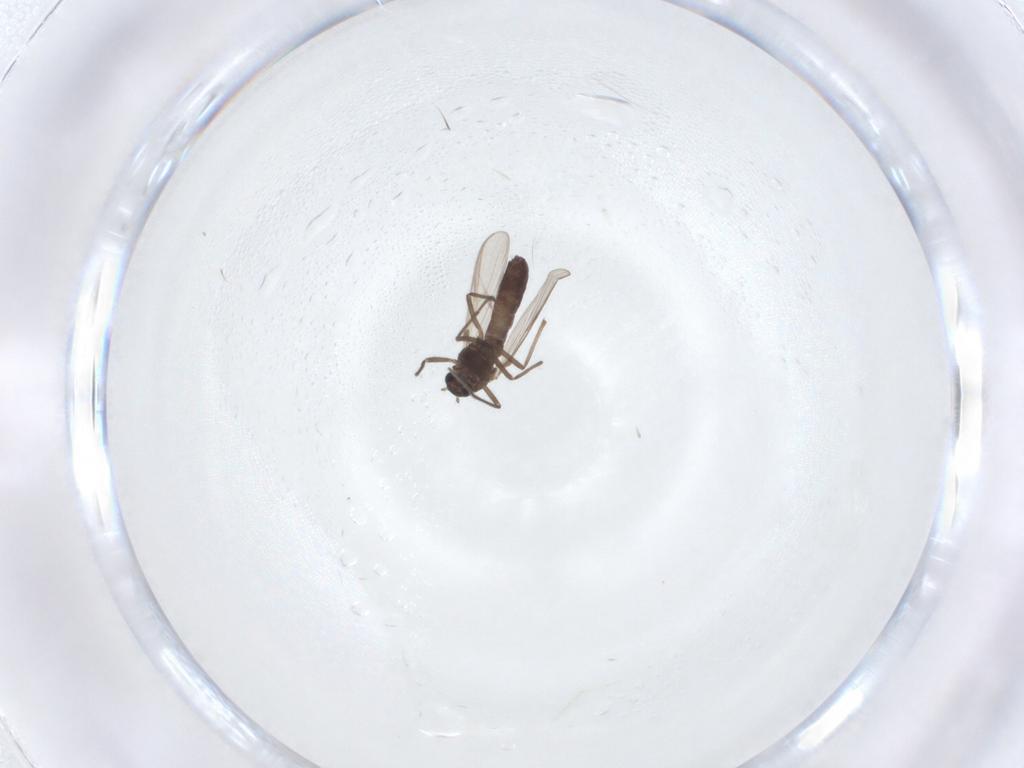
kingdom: Animalia
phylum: Arthropoda
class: Insecta
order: Diptera
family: Chironomidae
